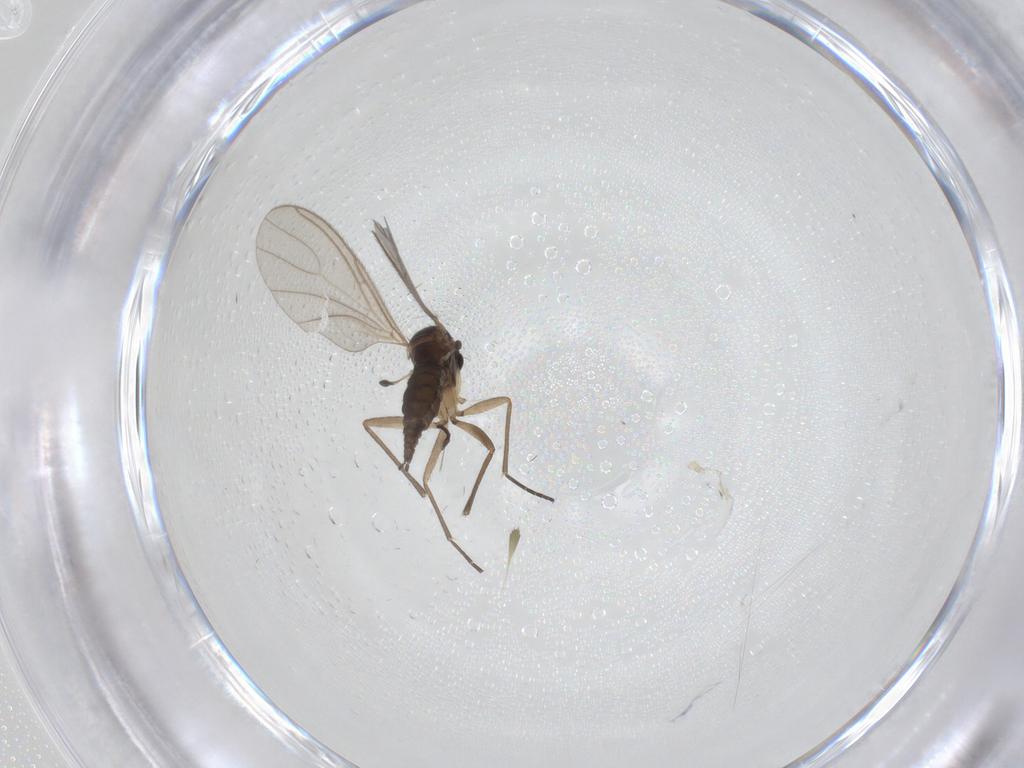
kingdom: Animalia
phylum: Arthropoda
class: Insecta
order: Diptera
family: Sciaridae
